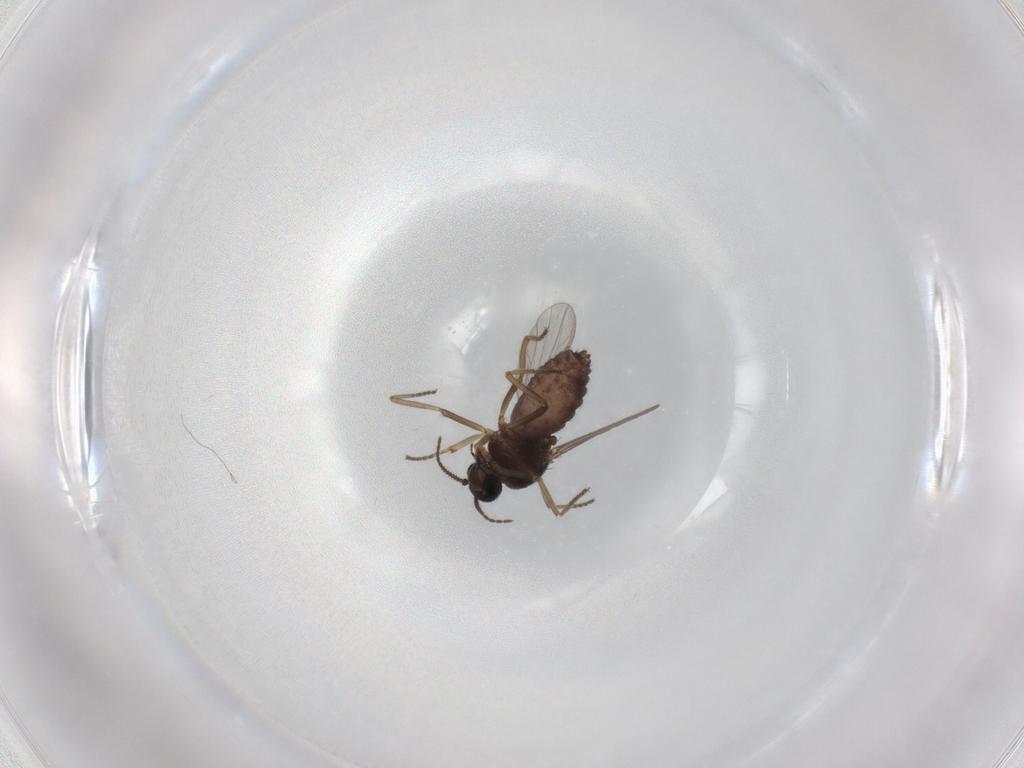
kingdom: Animalia
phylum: Arthropoda
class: Insecta
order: Diptera
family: Ceratopogonidae
